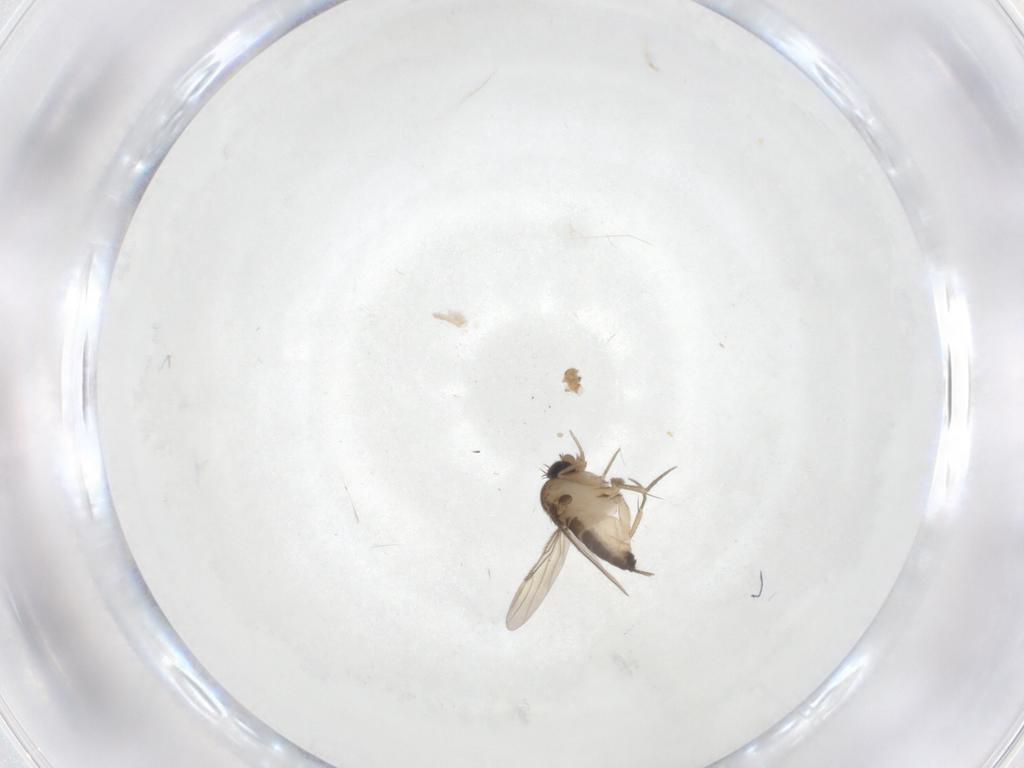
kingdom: Animalia
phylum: Arthropoda
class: Insecta
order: Diptera
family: Phoridae
